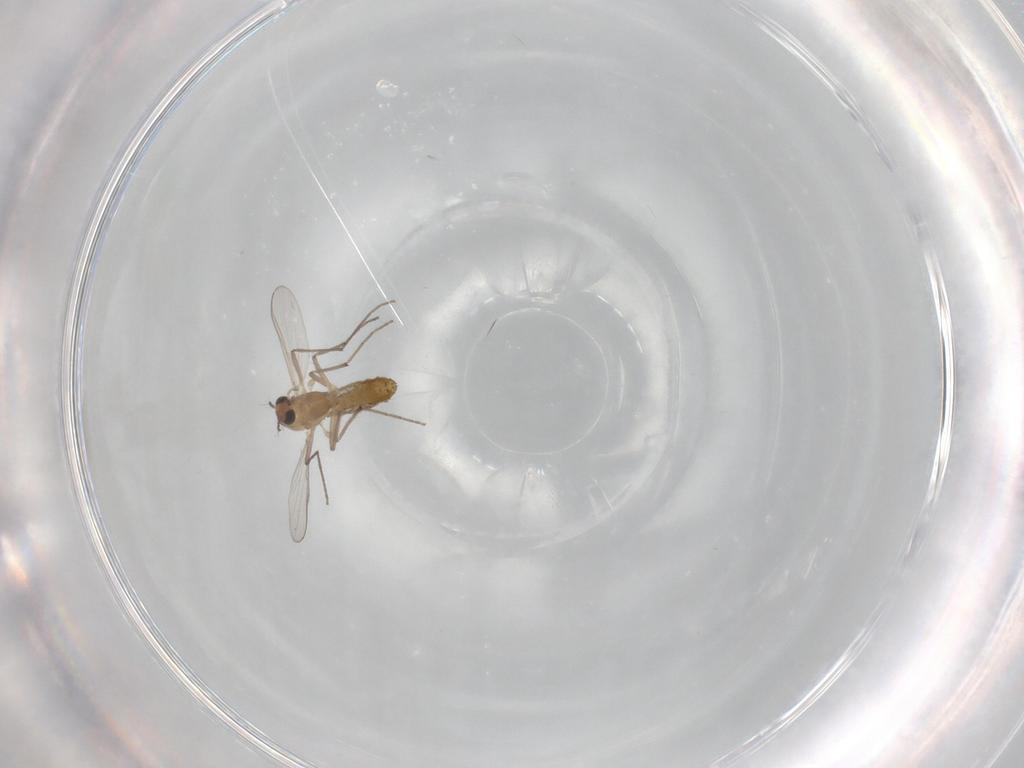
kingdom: Animalia
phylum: Arthropoda
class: Insecta
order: Diptera
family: Chironomidae
